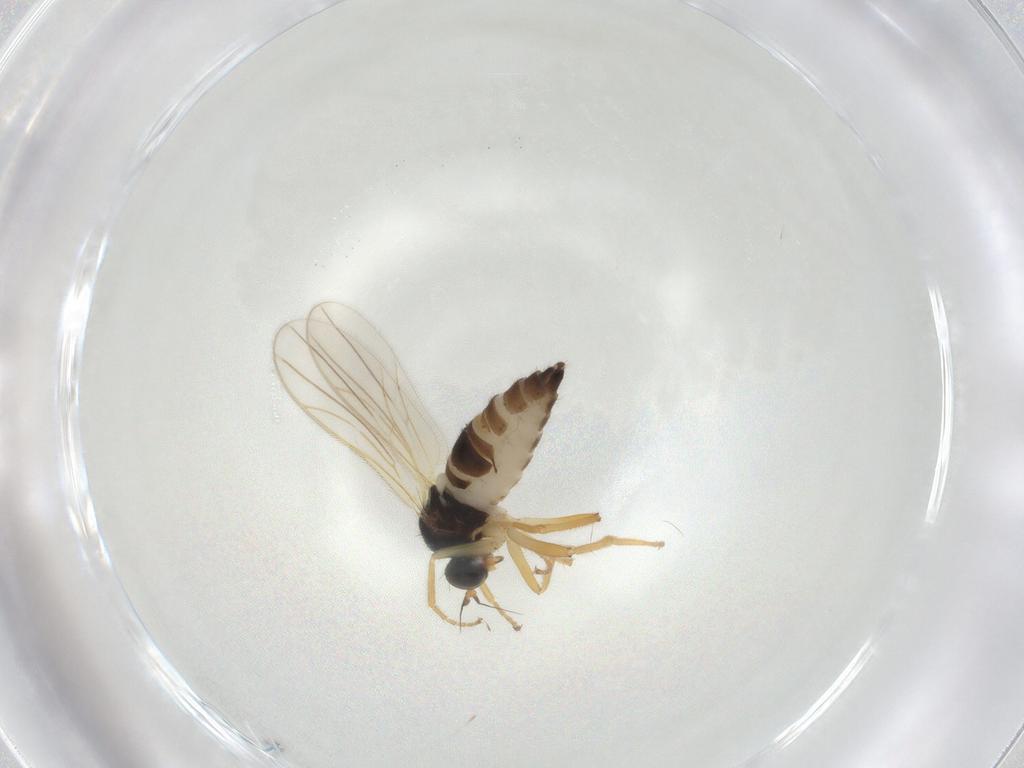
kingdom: Animalia
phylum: Arthropoda
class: Insecta
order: Diptera
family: Hybotidae
